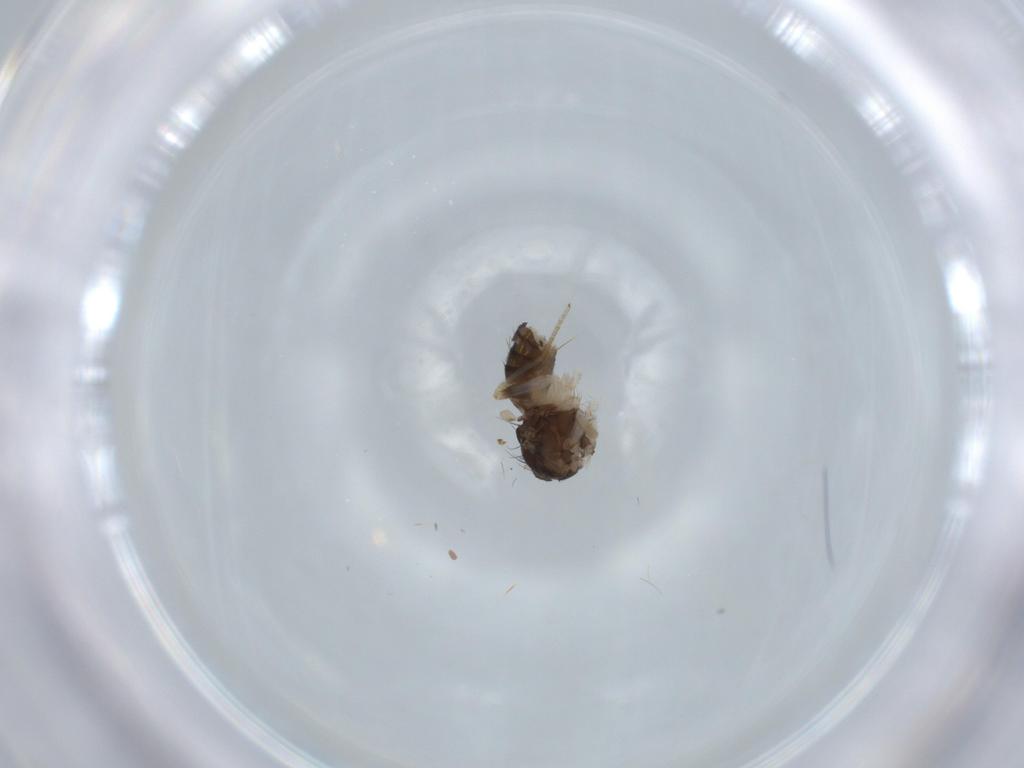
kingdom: Animalia
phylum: Arthropoda
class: Insecta
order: Diptera
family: Drosophilidae
